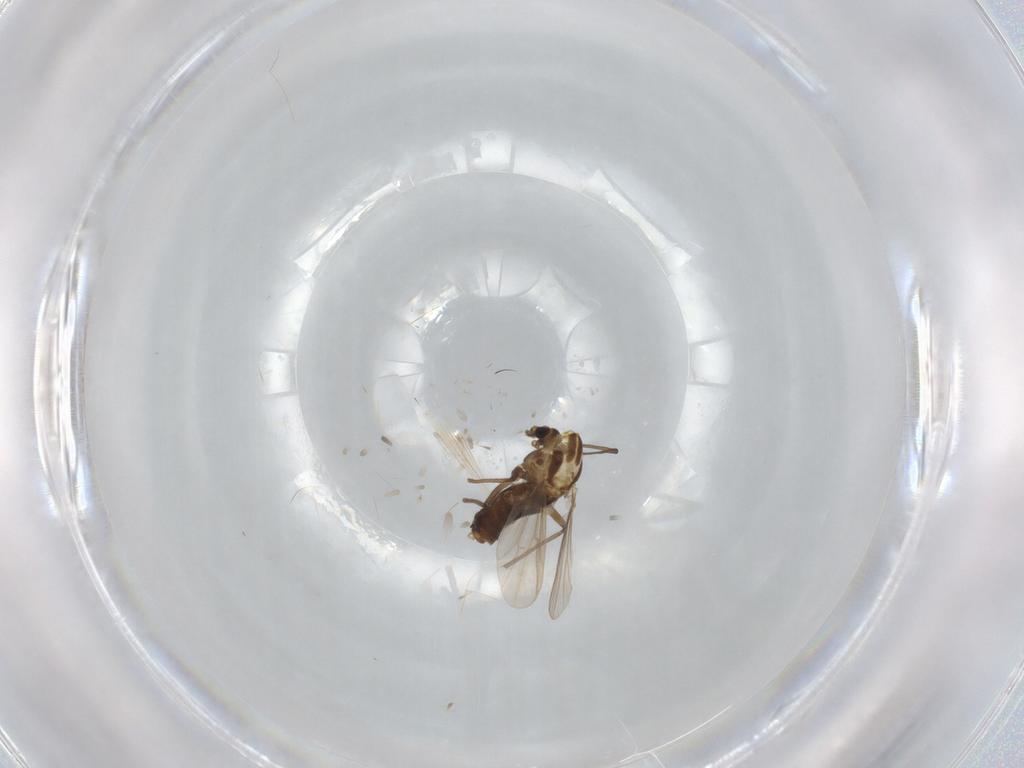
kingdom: Animalia
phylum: Arthropoda
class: Insecta
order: Diptera
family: Chironomidae
